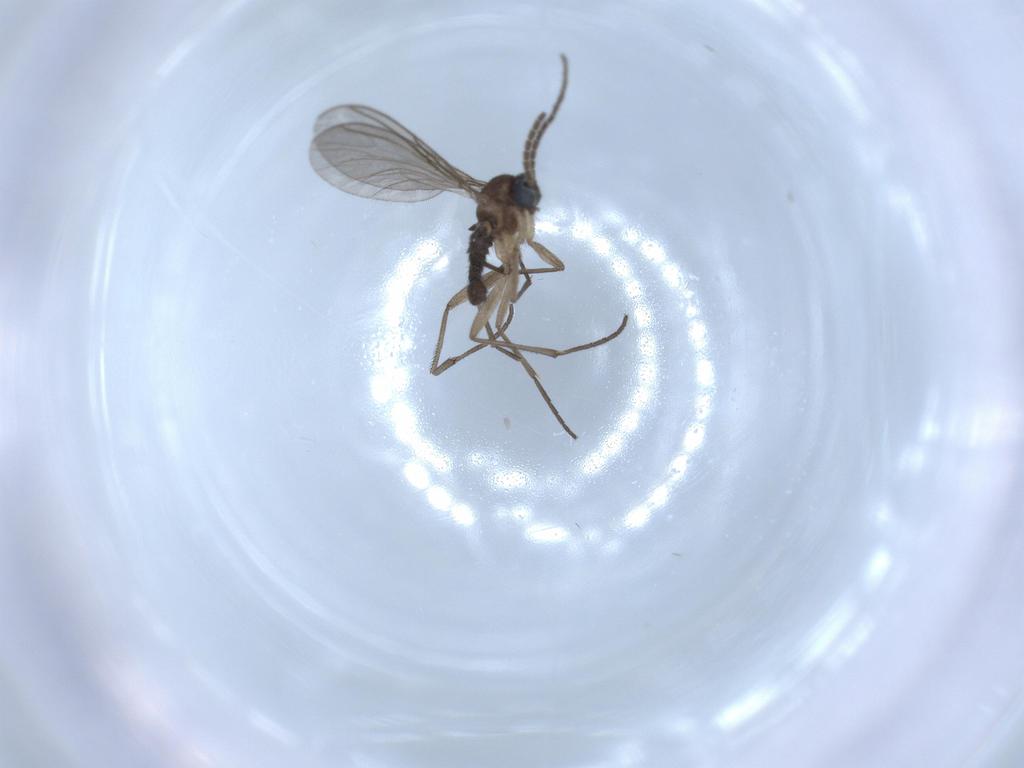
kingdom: Animalia
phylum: Arthropoda
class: Insecta
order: Diptera
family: Sciaridae
